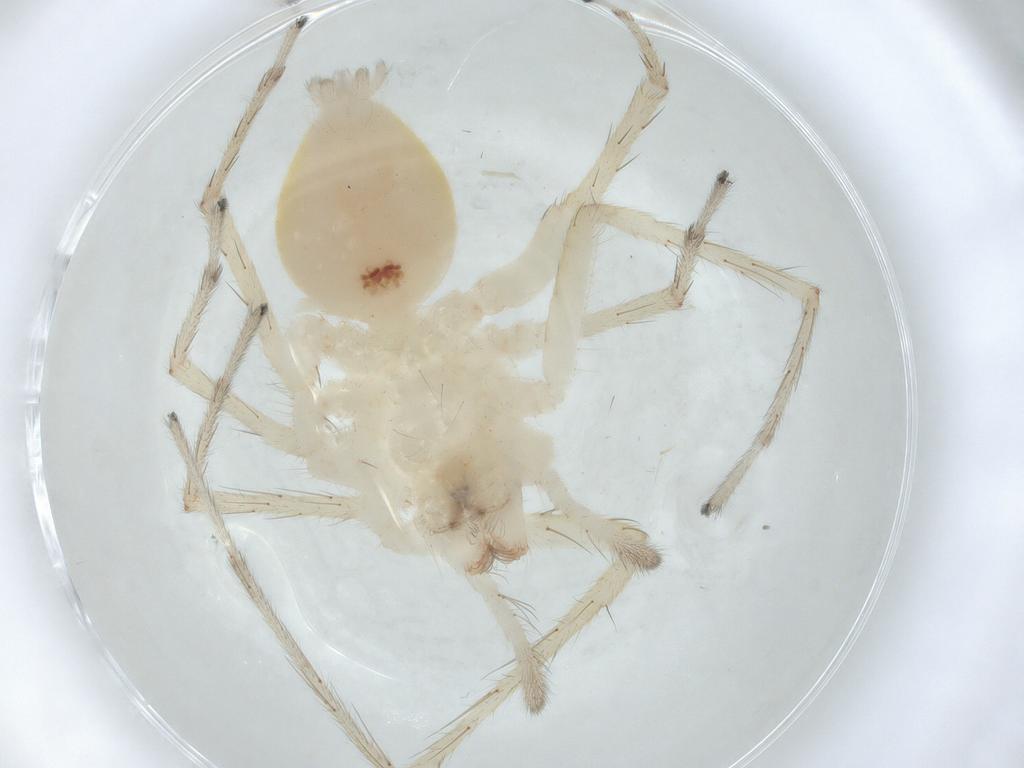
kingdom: Animalia
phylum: Arthropoda
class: Arachnida
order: Araneae
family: Anyphaenidae
